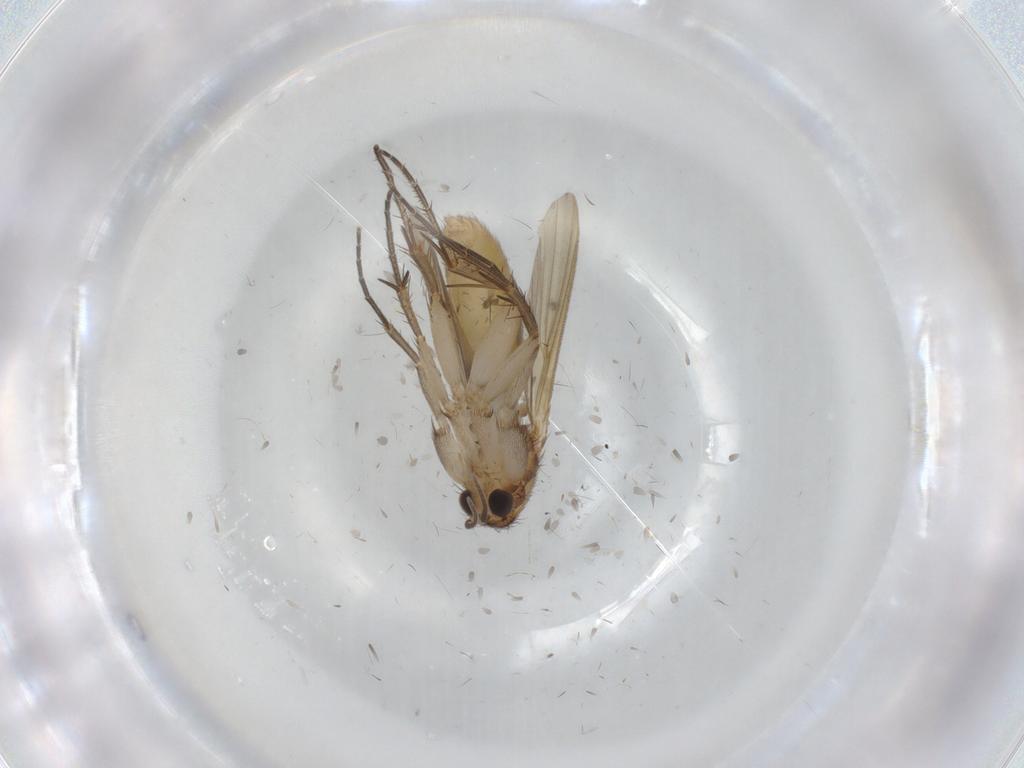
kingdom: Animalia
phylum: Arthropoda
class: Insecta
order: Diptera
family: Mycetophilidae
